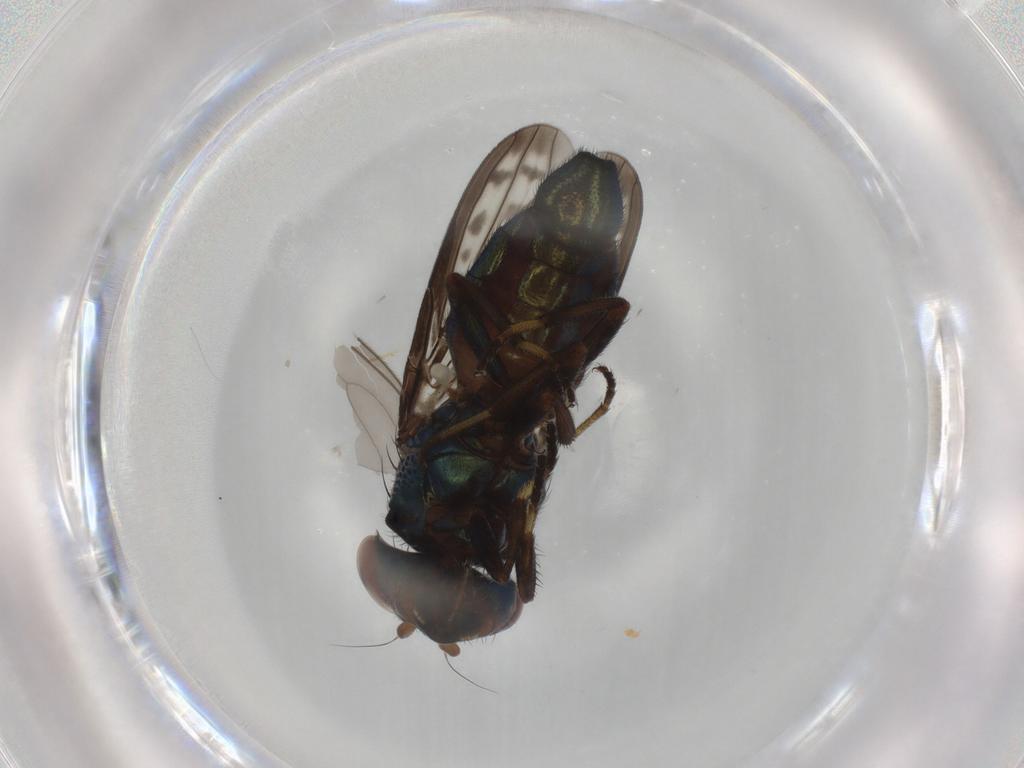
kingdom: Animalia
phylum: Arthropoda
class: Insecta
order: Diptera
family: Ulidiidae
